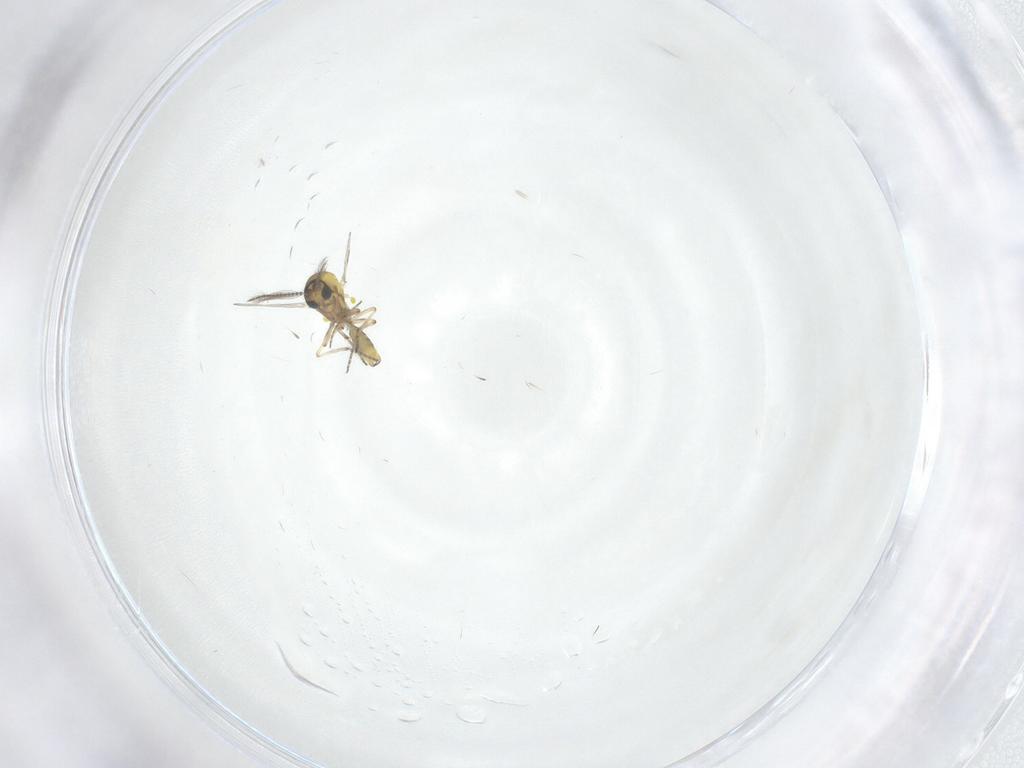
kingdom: Animalia
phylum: Arthropoda
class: Insecta
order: Diptera
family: Ceratopogonidae
